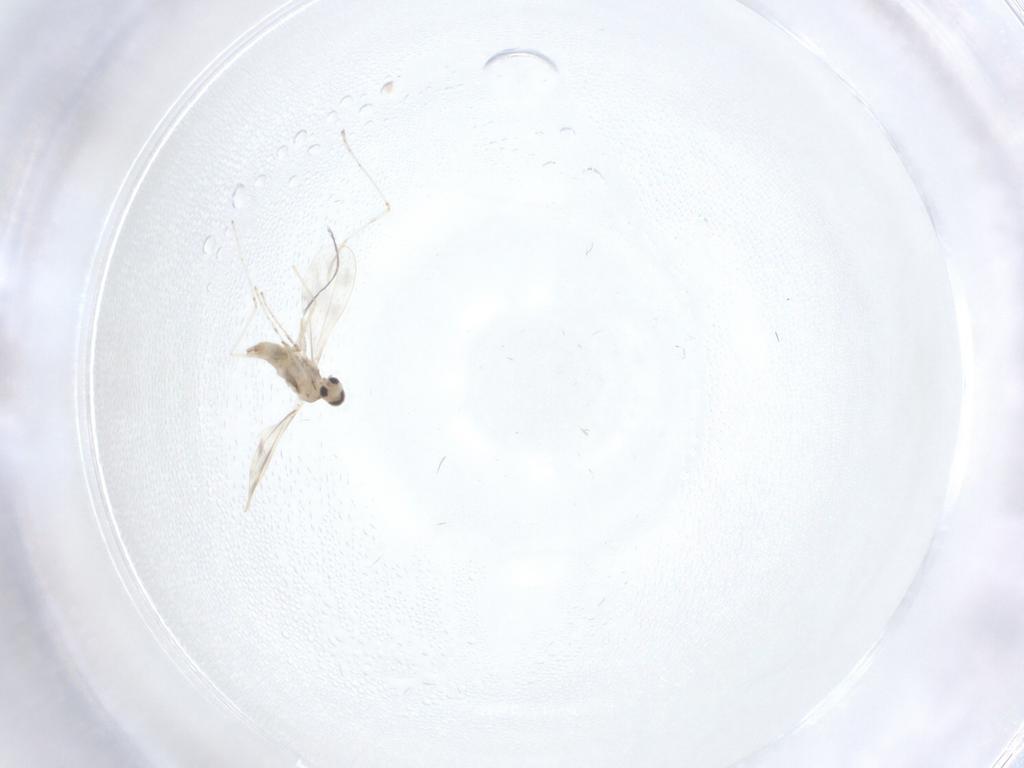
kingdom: Animalia
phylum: Arthropoda
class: Insecta
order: Diptera
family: Cecidomyiidae
